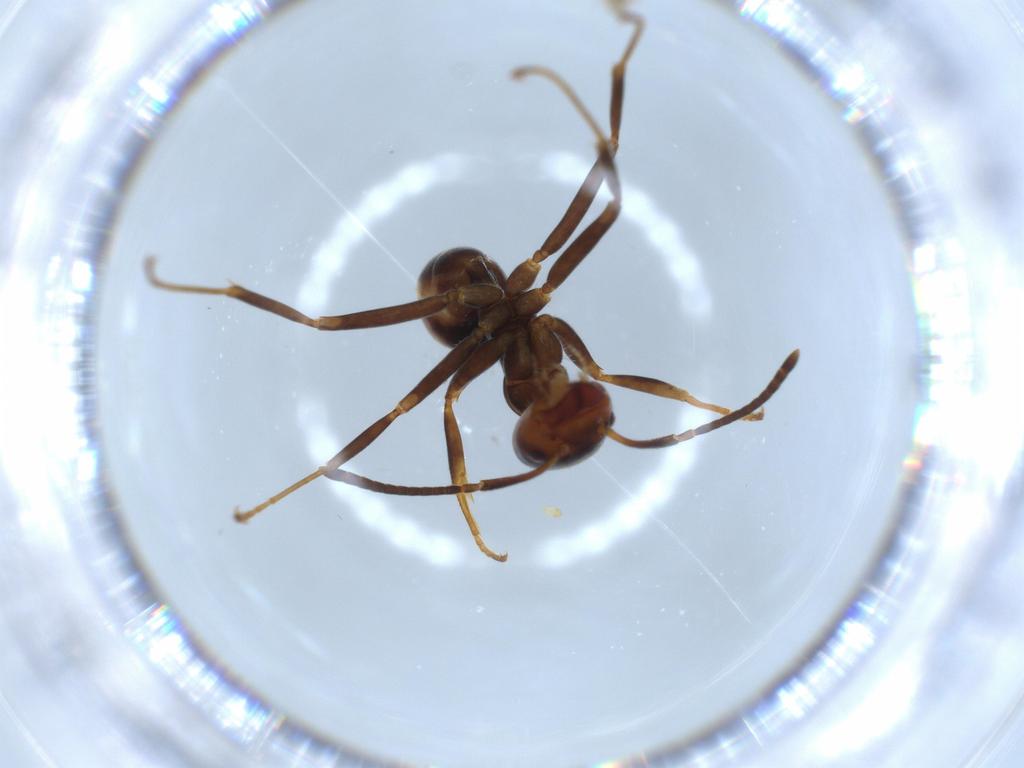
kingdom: Animalia
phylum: Arthropoda
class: Insecta
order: Hymenoptera
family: Formicidae
